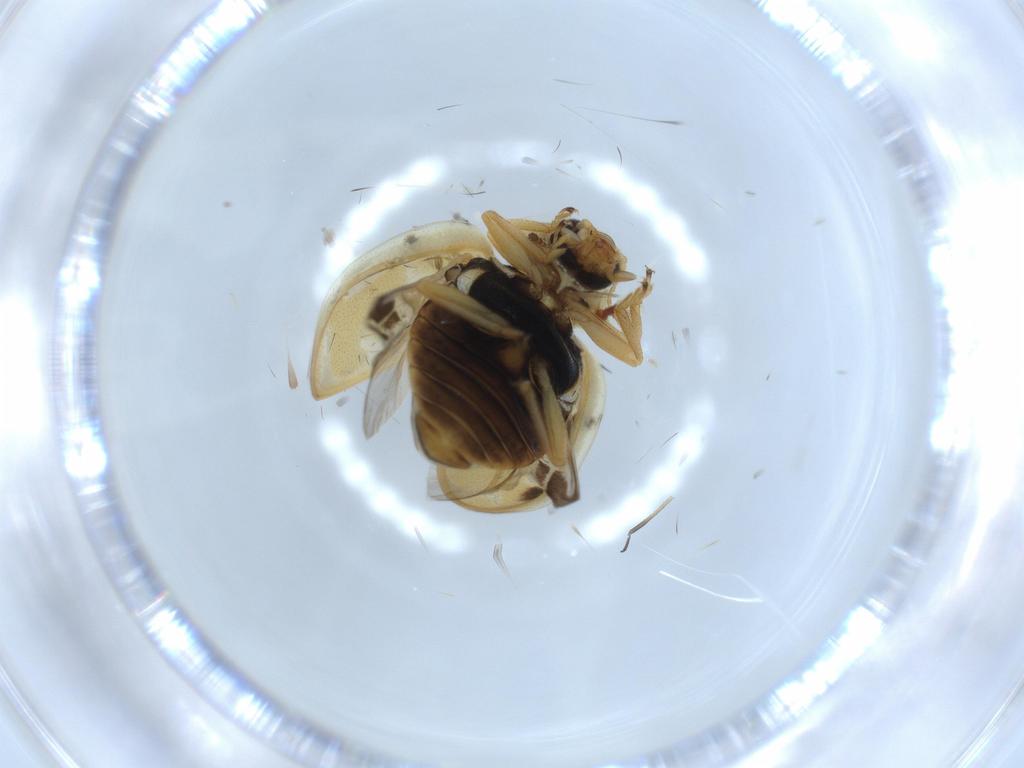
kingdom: Animalia
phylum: Arthropoda
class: Insecta
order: Coleoptera
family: Coccinellidae
